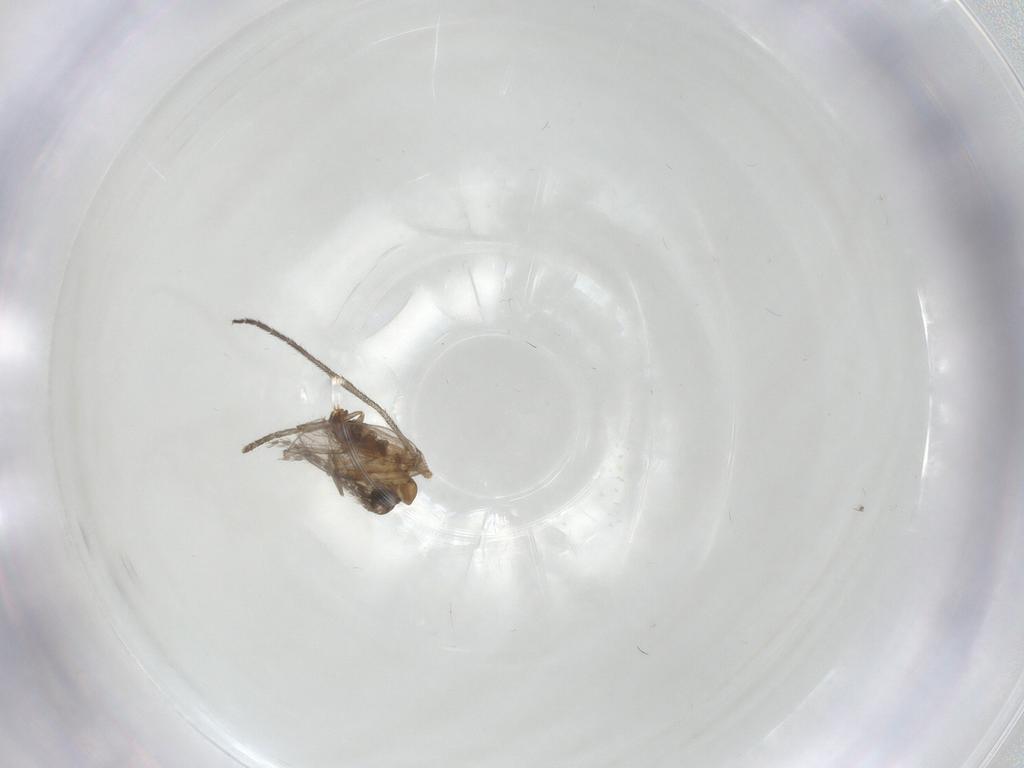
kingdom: Animalia
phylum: Arthropoda
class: Insecta
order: Diptera
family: Sciaridae
